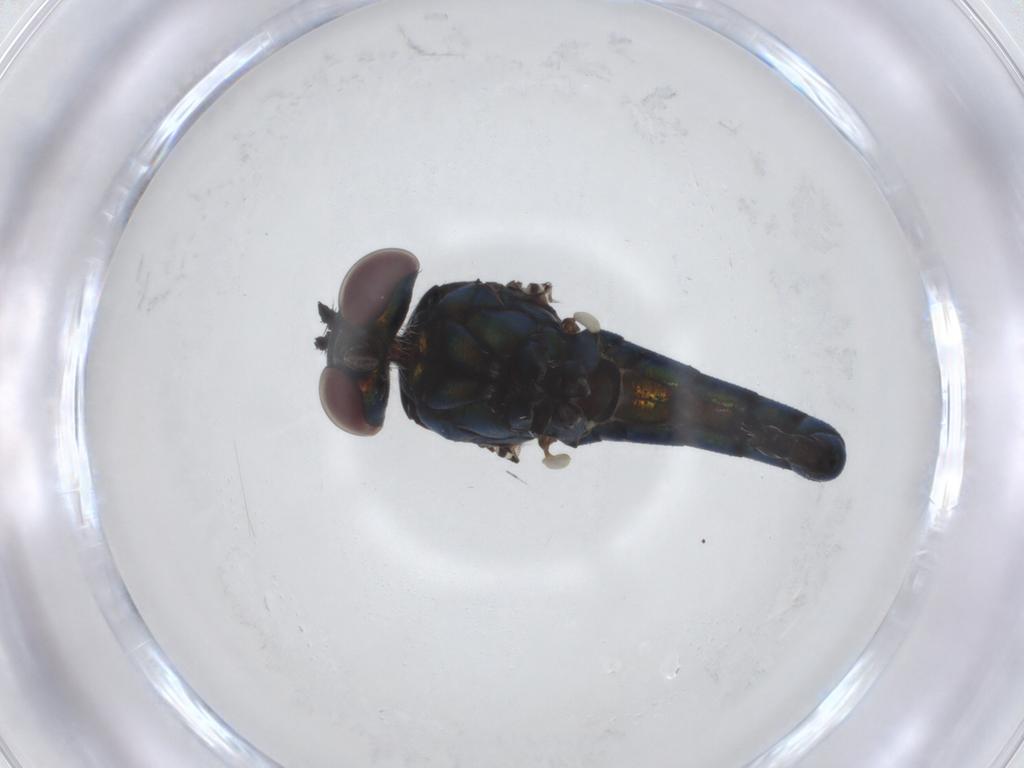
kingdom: Animalia
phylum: Arthropoda
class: Insecta
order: Diptera
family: Dolichopodidae
